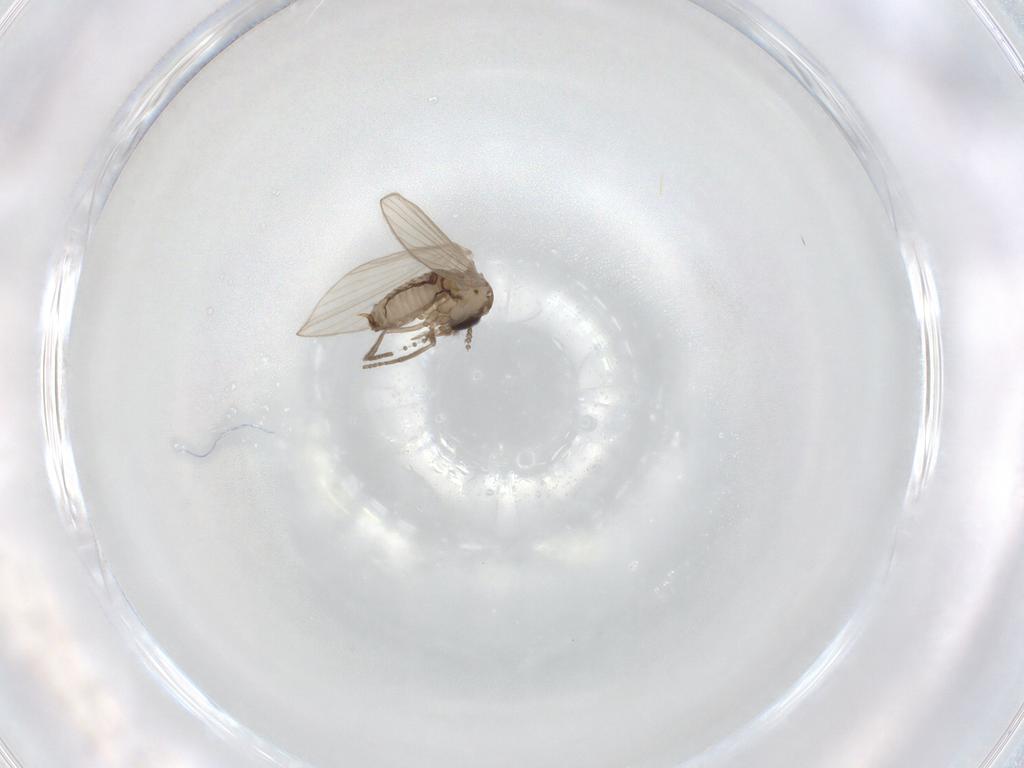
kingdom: Animalia
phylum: Arthropoda
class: Insecta
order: Diptera
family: Psychodidae
